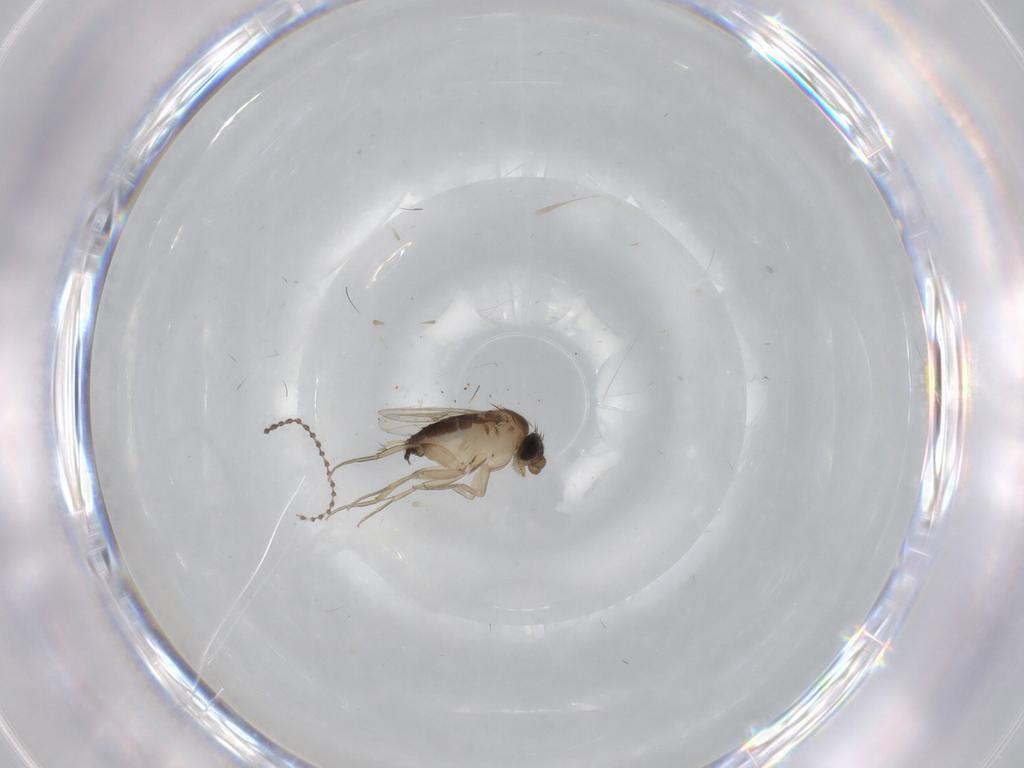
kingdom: Animalia
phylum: Arthropoda
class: Insecta
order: Diptera
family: Phoridae
